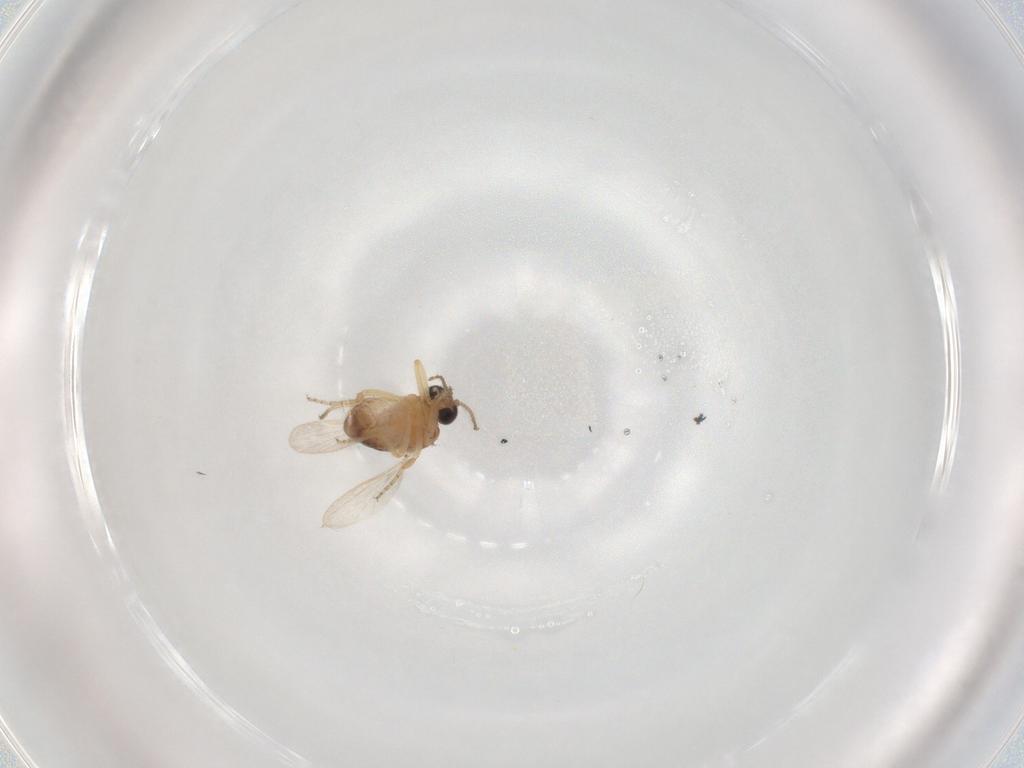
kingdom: Animalia
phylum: Arthropoda
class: Insecta
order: Diptera
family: Ceratopogonidae
